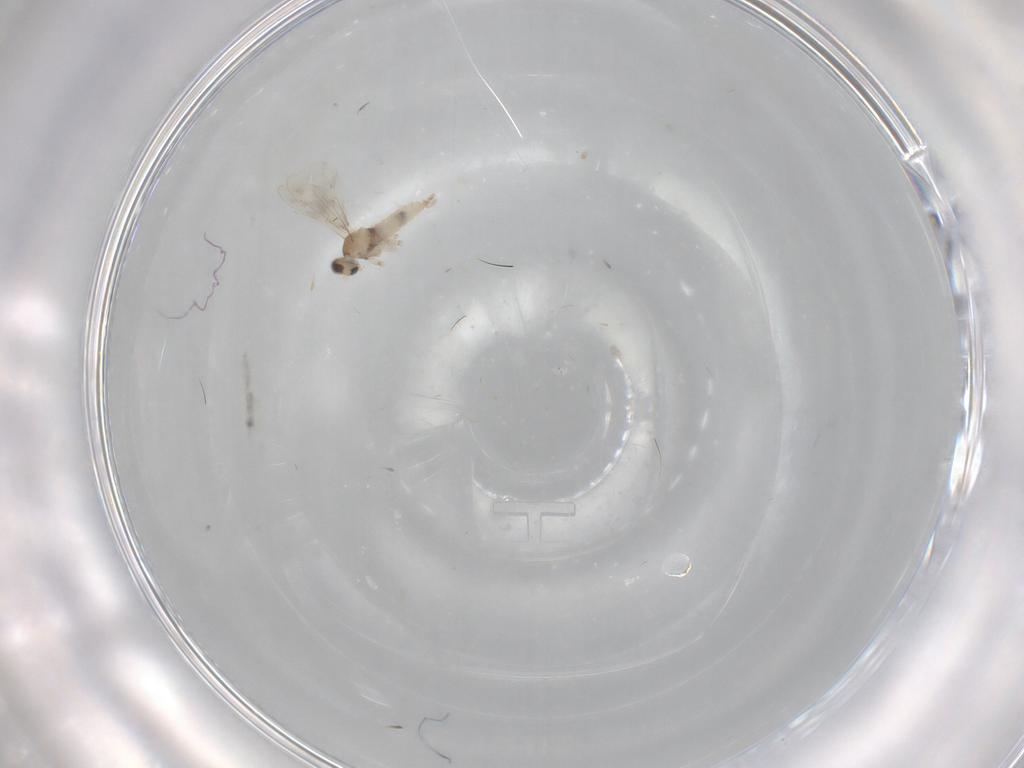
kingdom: Animalia
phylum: Arthropoda
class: Insecta
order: Diptera
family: Cecidomyiidae
